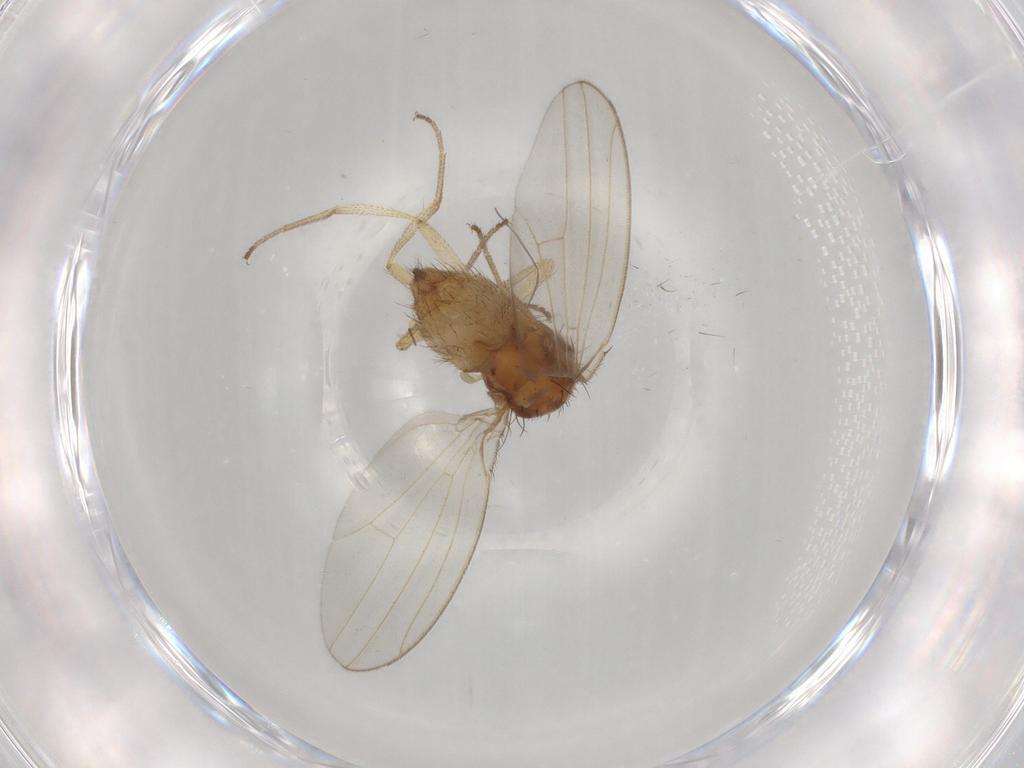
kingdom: Animalia
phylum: Arthropoda
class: Insecta
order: Diptera
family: Drosophilidae
